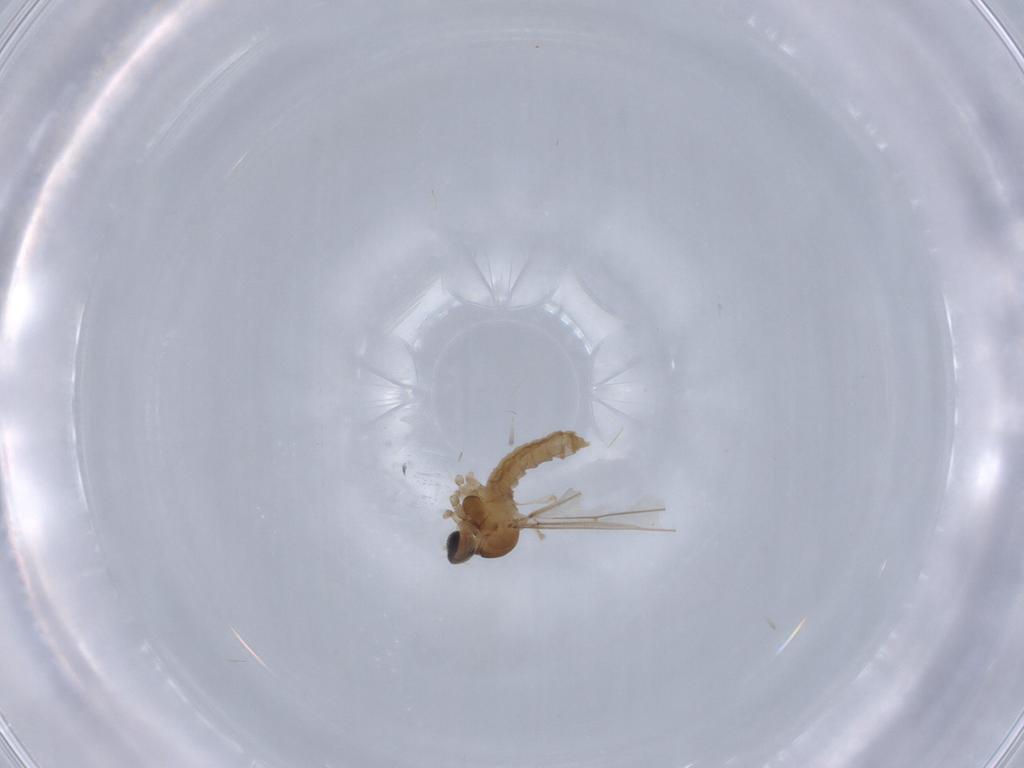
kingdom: Animalia
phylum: Arthropoda
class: Insecta
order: Diptera
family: Cecidomyiidae
